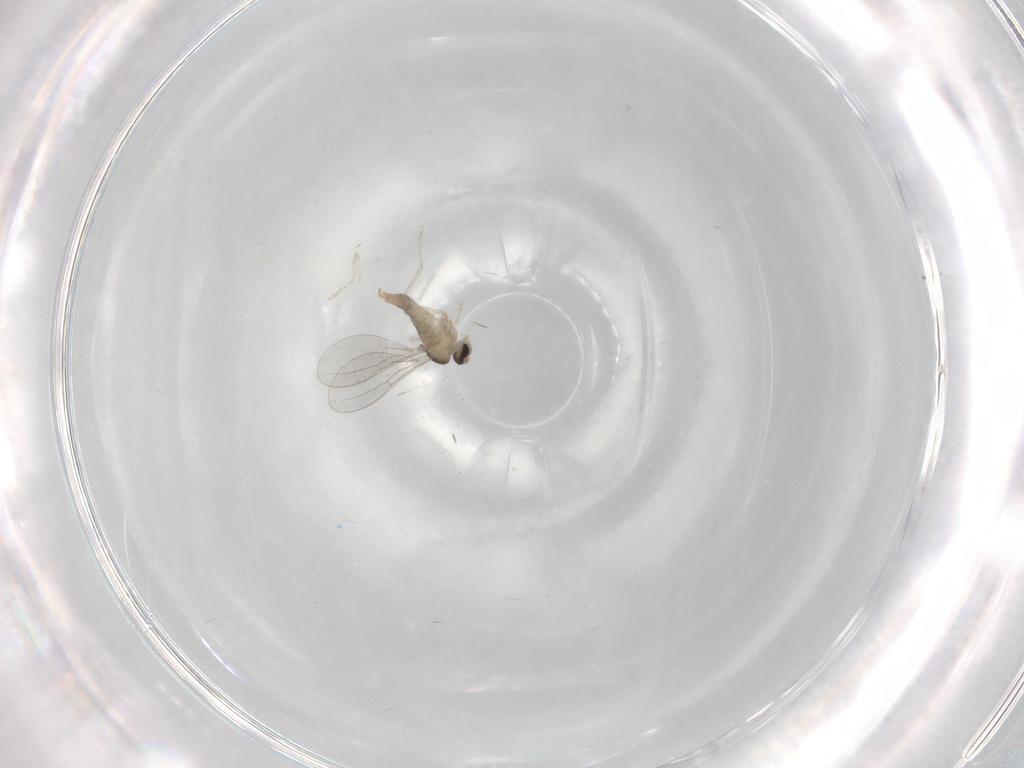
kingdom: Animalia
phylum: Arthropoda
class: Insecta
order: Diptera
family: Cecidomyiidae
